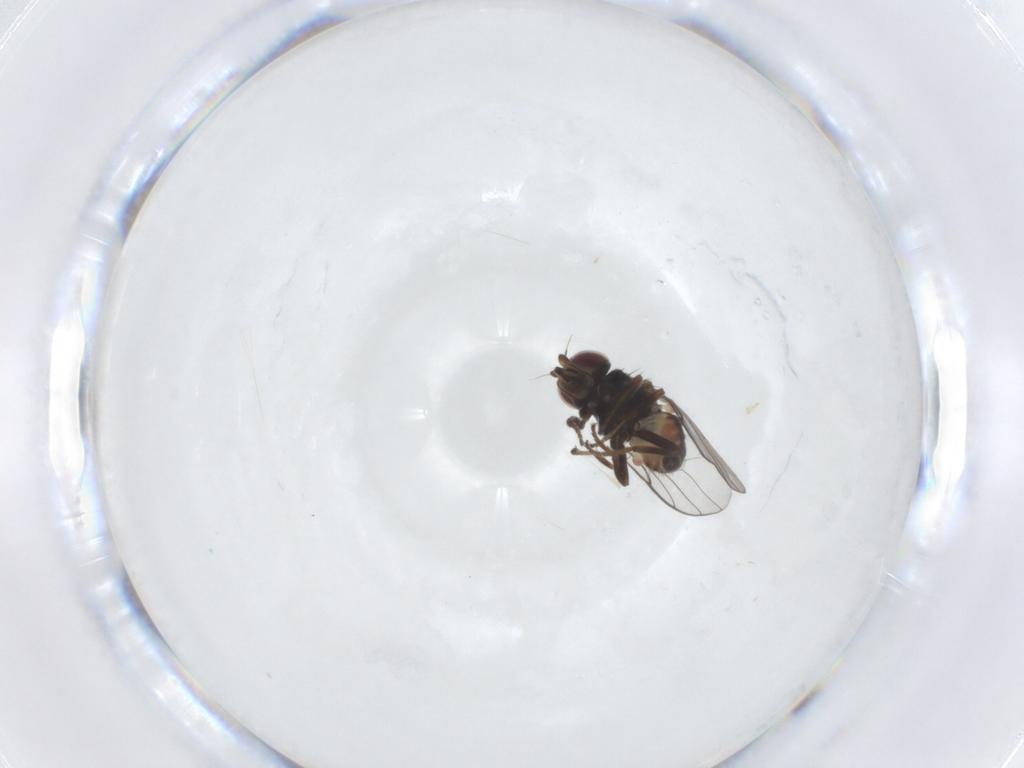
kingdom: Animalia
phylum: Arthropoda
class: Insecta
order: Diptera
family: Chloropidae
